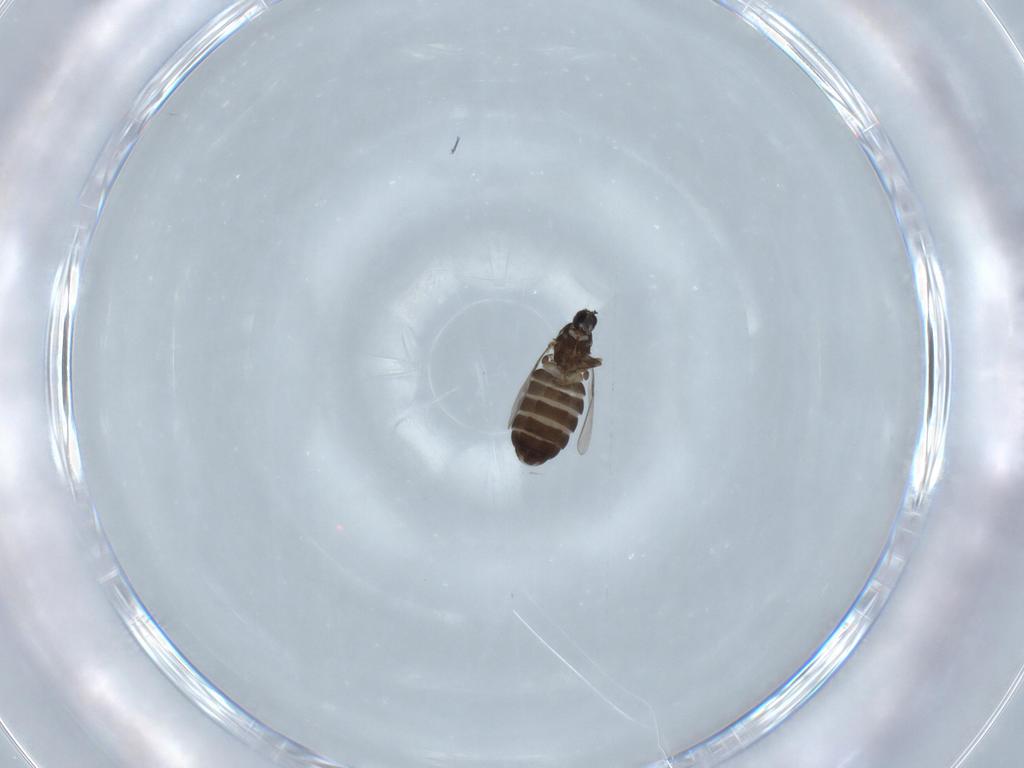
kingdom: Animalia
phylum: Arthropoda
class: Insecta
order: Diptera
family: Scatopsidae
